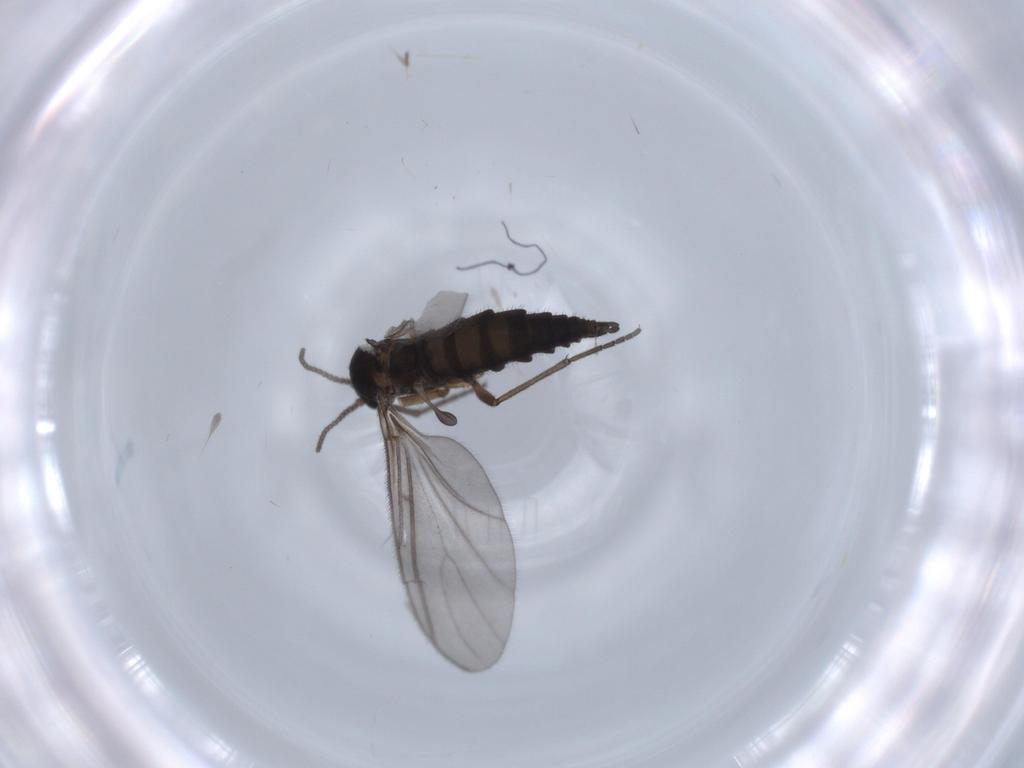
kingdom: Animalia
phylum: Arthropoda
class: Insecta
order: Diptera
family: Sciaridae
